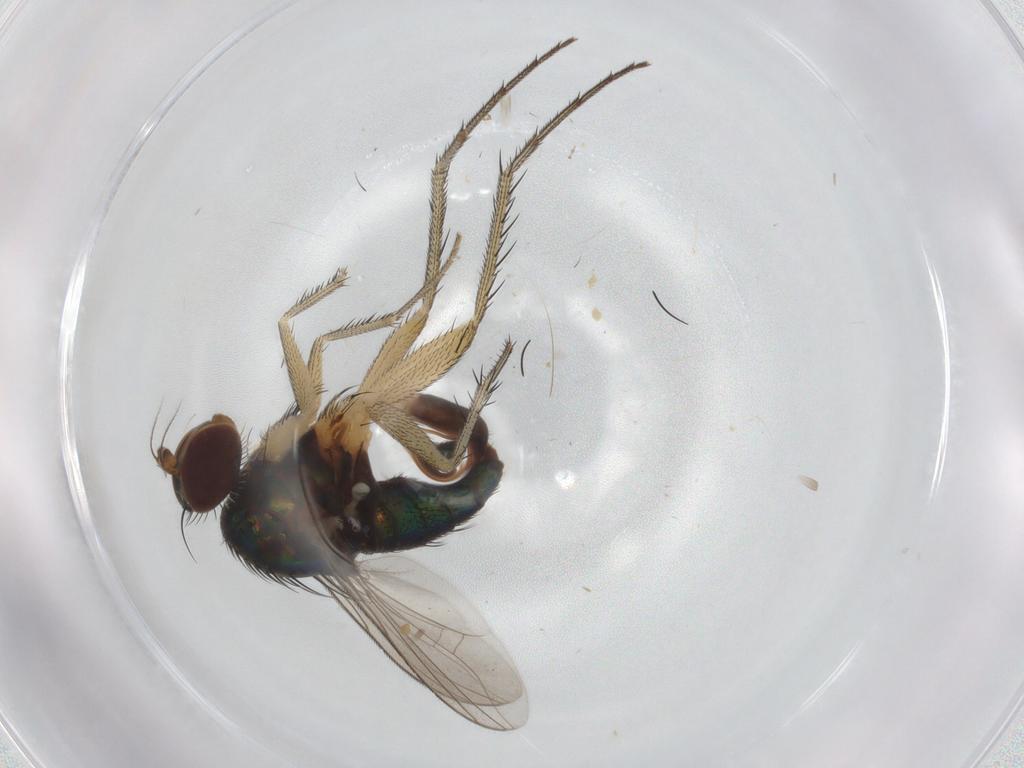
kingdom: Animalia
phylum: Arthropoda
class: Insecta
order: Diptera
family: Dolichopodidae
